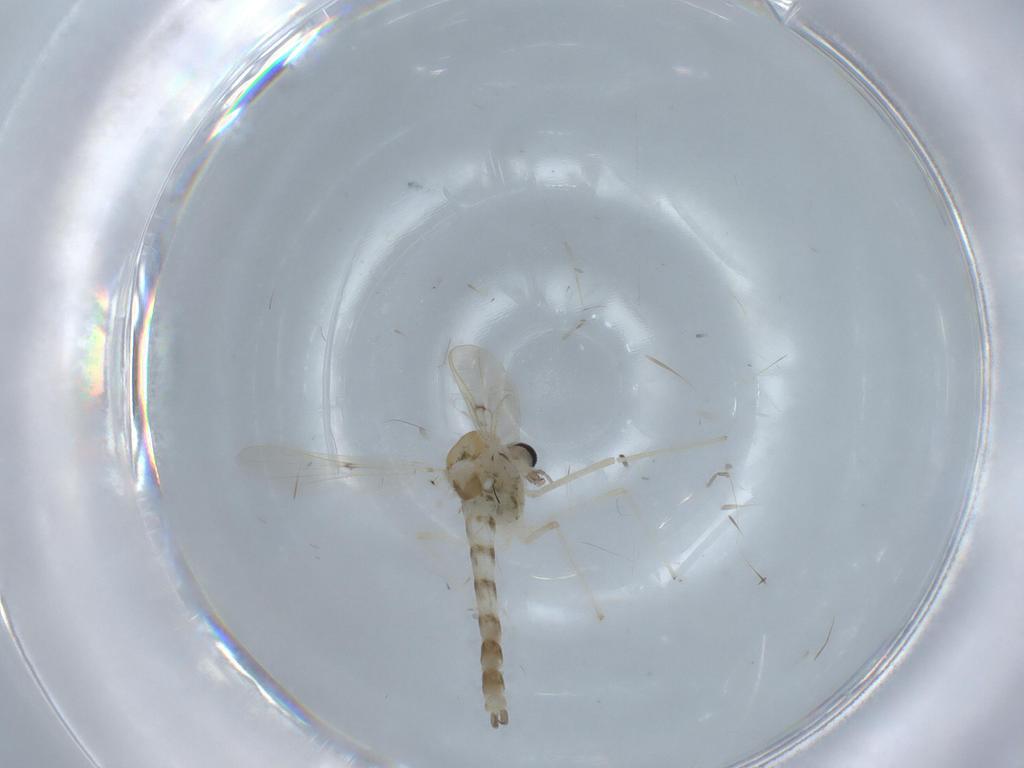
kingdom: Animalia
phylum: Arthropoda
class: Insecta
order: Diptera
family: Chironomidae
